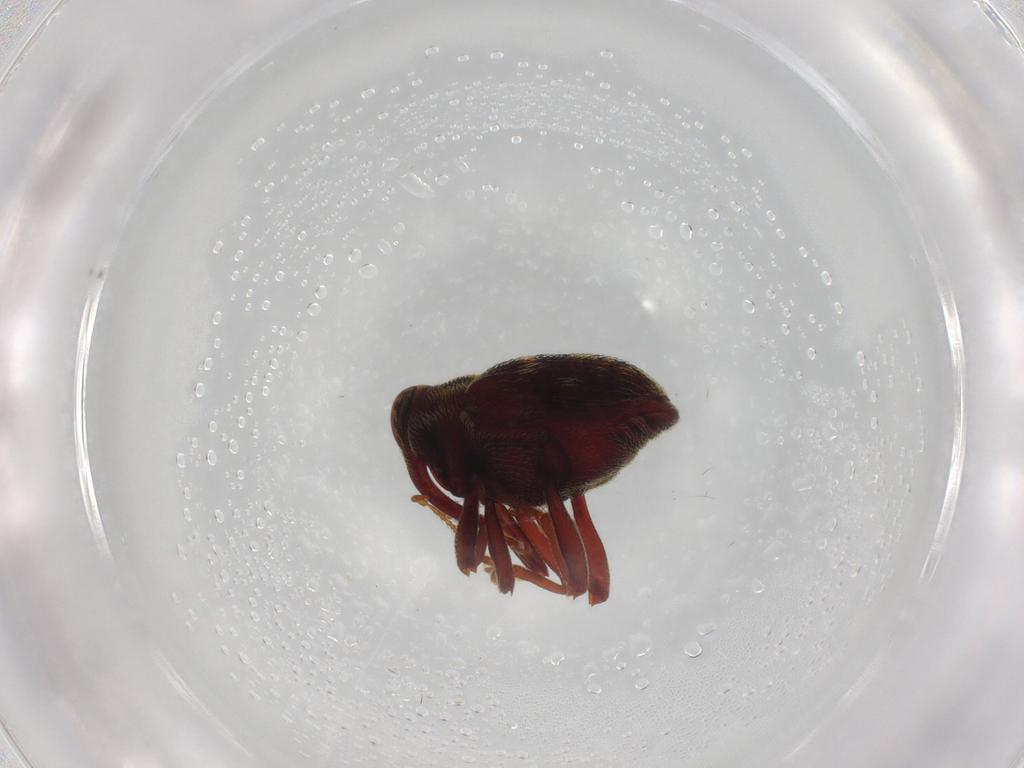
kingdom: Animalia
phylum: Arthropoda
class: Insecta
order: Coleoptera
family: Curculionidae
